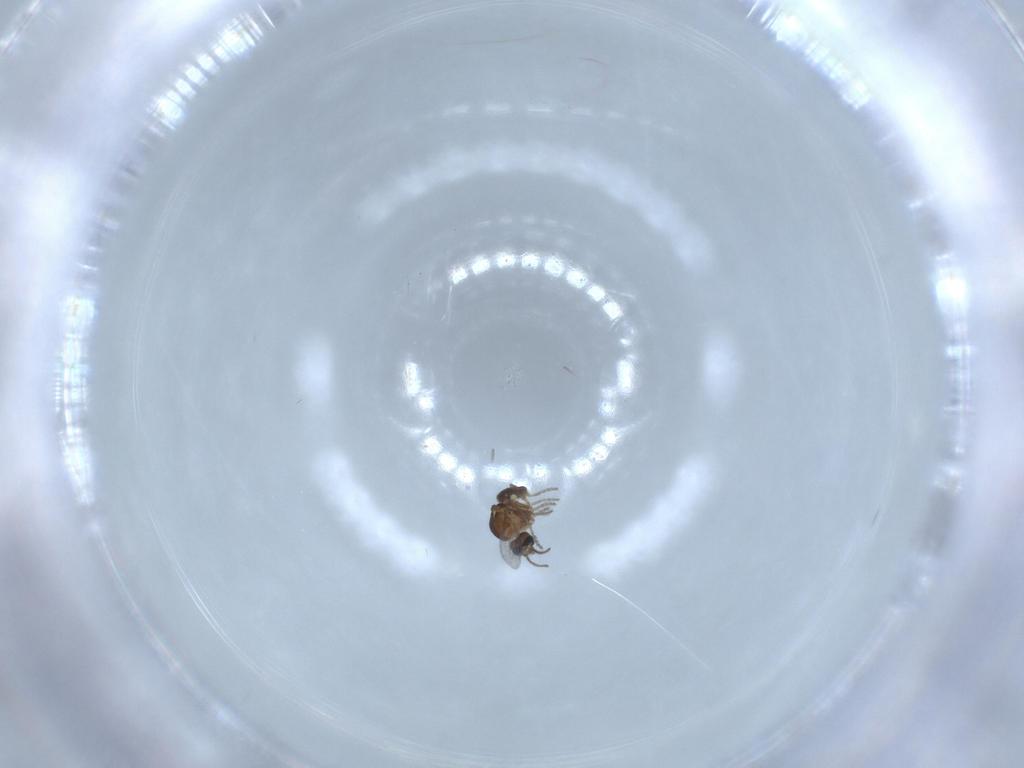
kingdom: Animalia
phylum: Arthropoda
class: Insecta
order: Diptera
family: Ceratopogonidae
